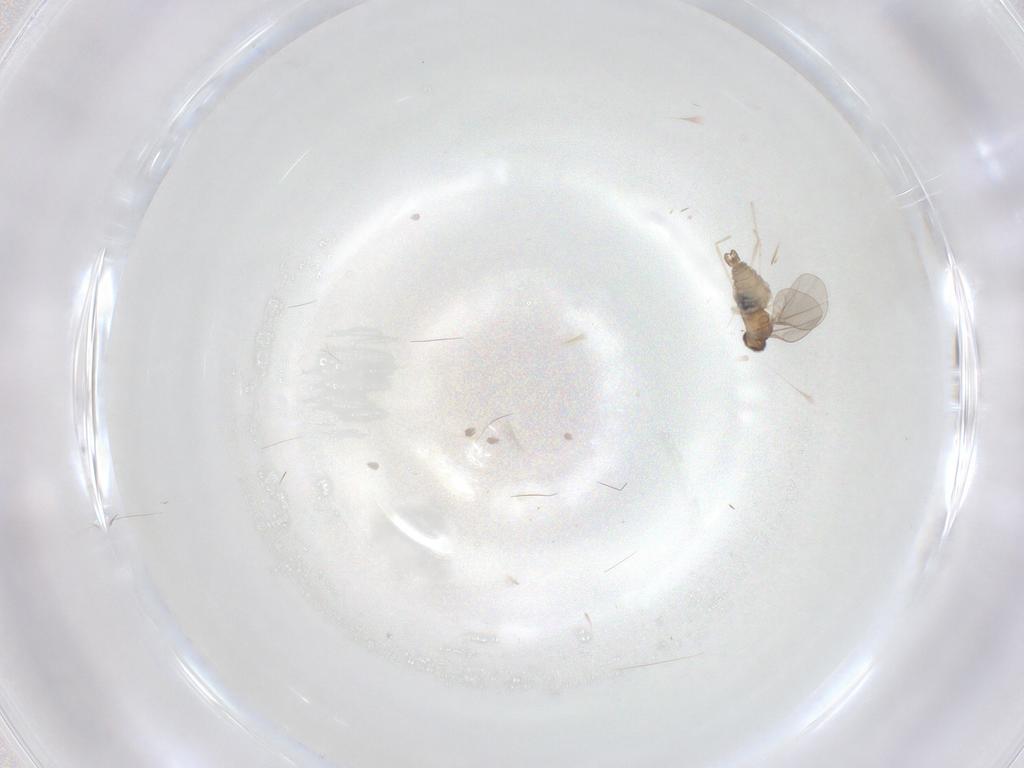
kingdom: Animalia
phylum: Arthropoda
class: Insecta
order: Diptera
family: Cecidomyiidae
